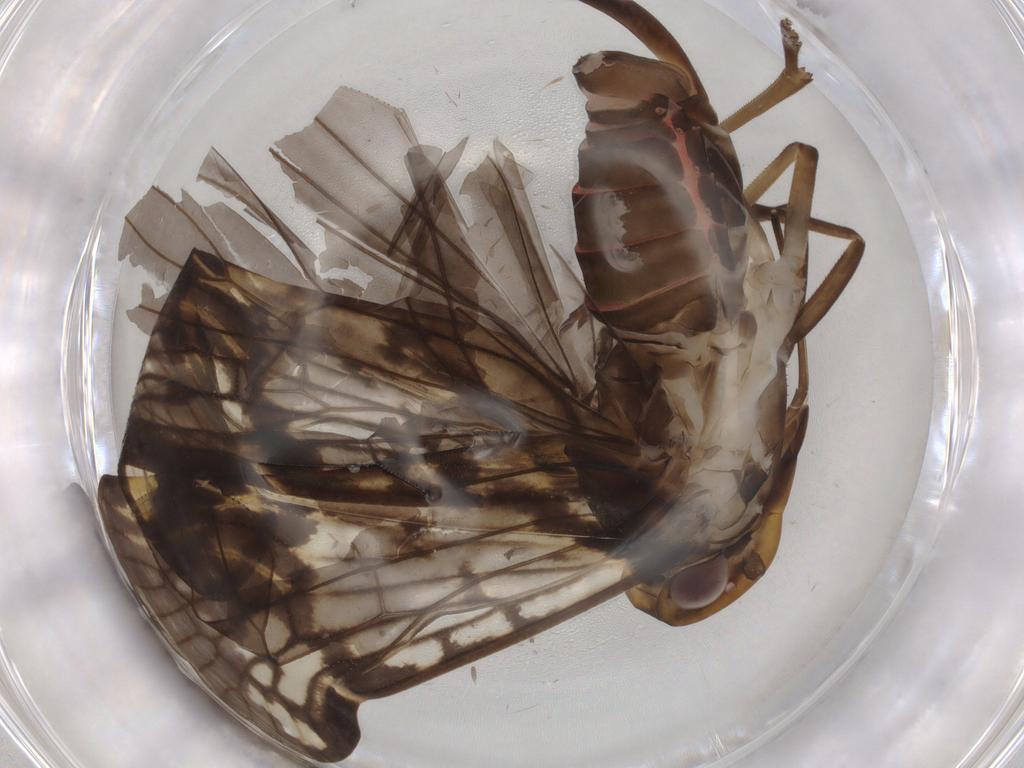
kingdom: Animalia
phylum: Arthropoda
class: Insecta
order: Hemiptera
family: Cixiidae
